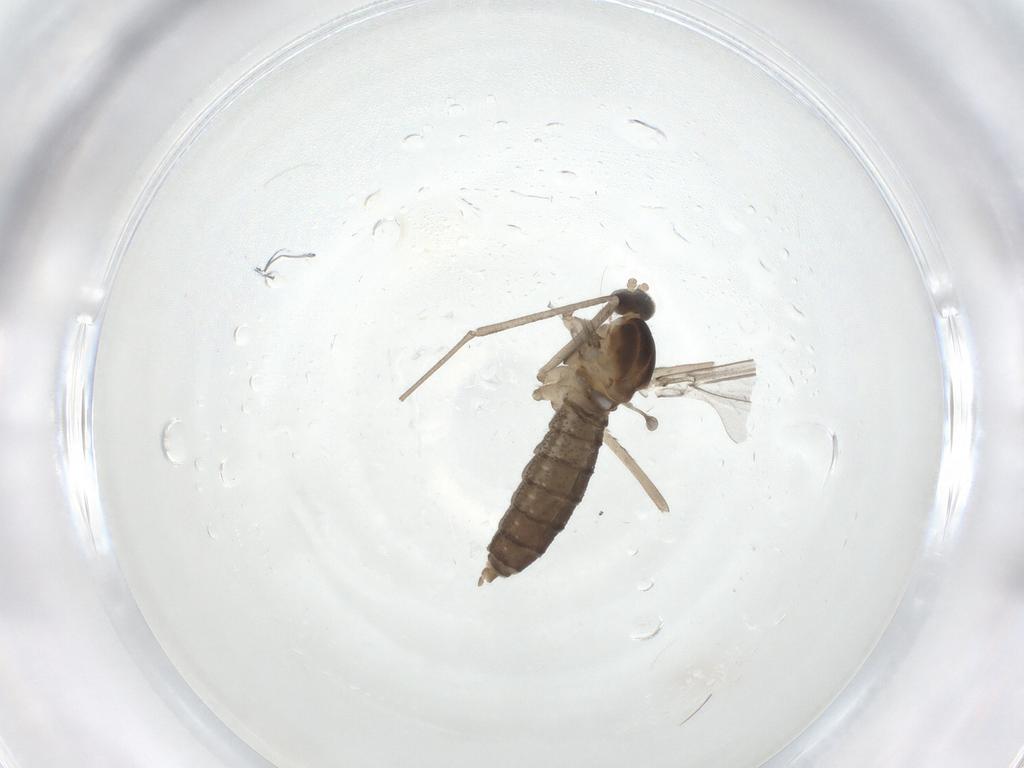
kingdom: Animalia
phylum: Arthropoda
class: Insecta
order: Diptera
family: Cecidomyiidae
